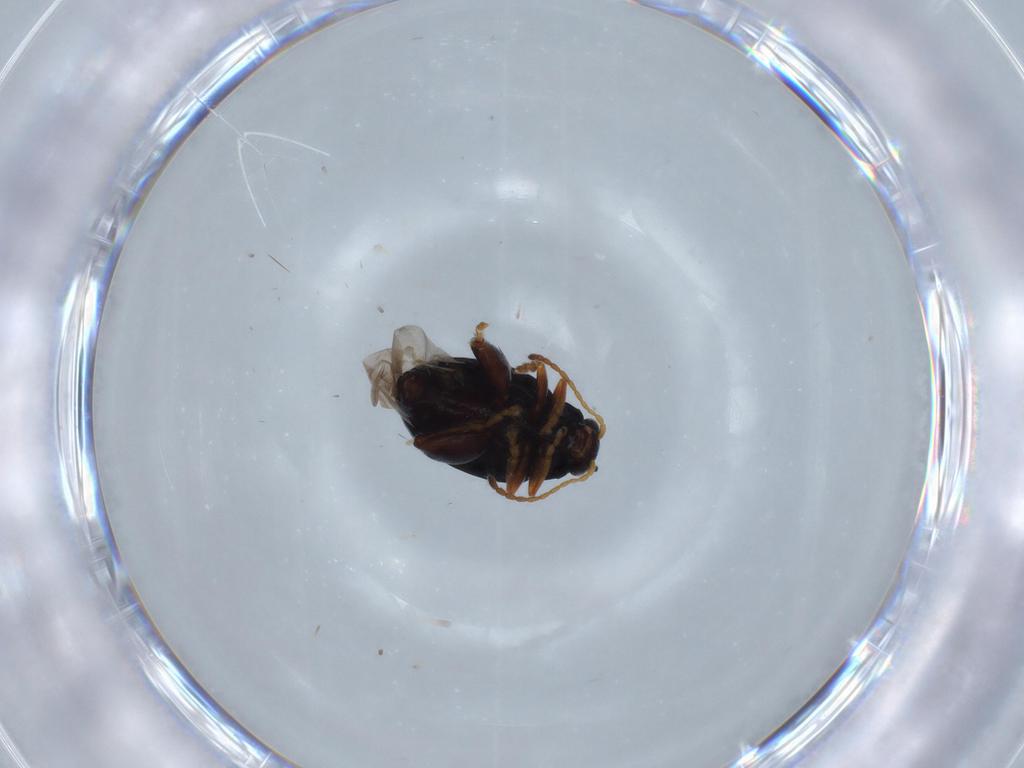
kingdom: Animalia
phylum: Arthropoda
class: Insecta
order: Coleoptera
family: Chrysomelidae
